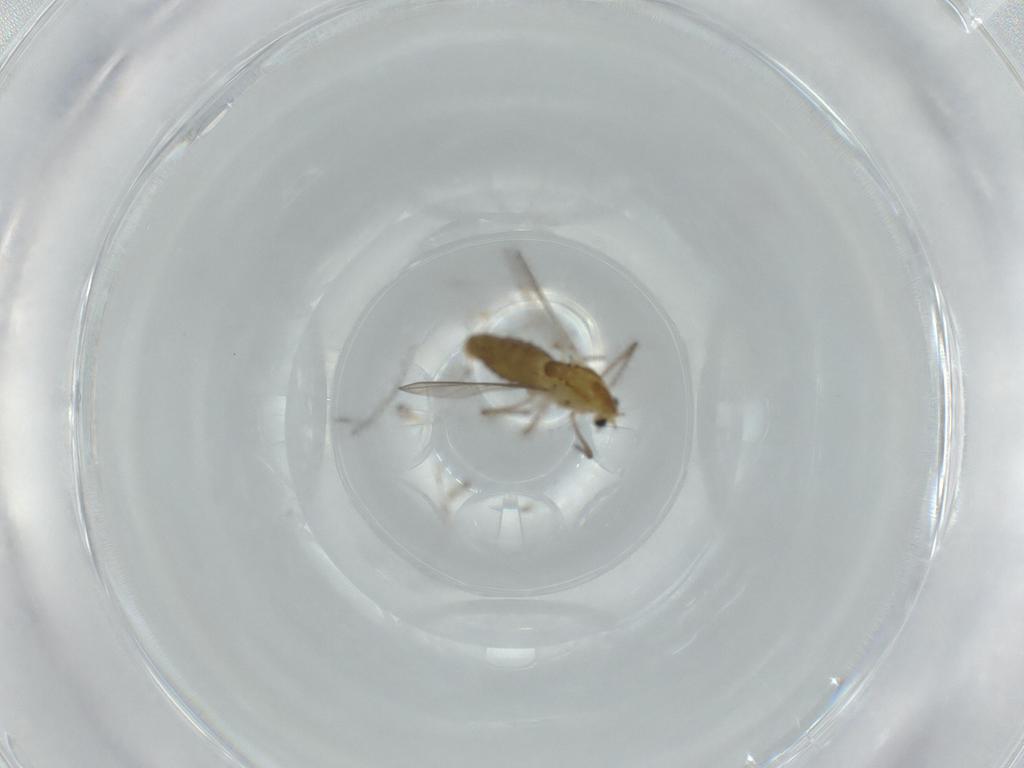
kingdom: Animalia
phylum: Arthropoda
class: Insecta
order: Diptera
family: Chironomidae
